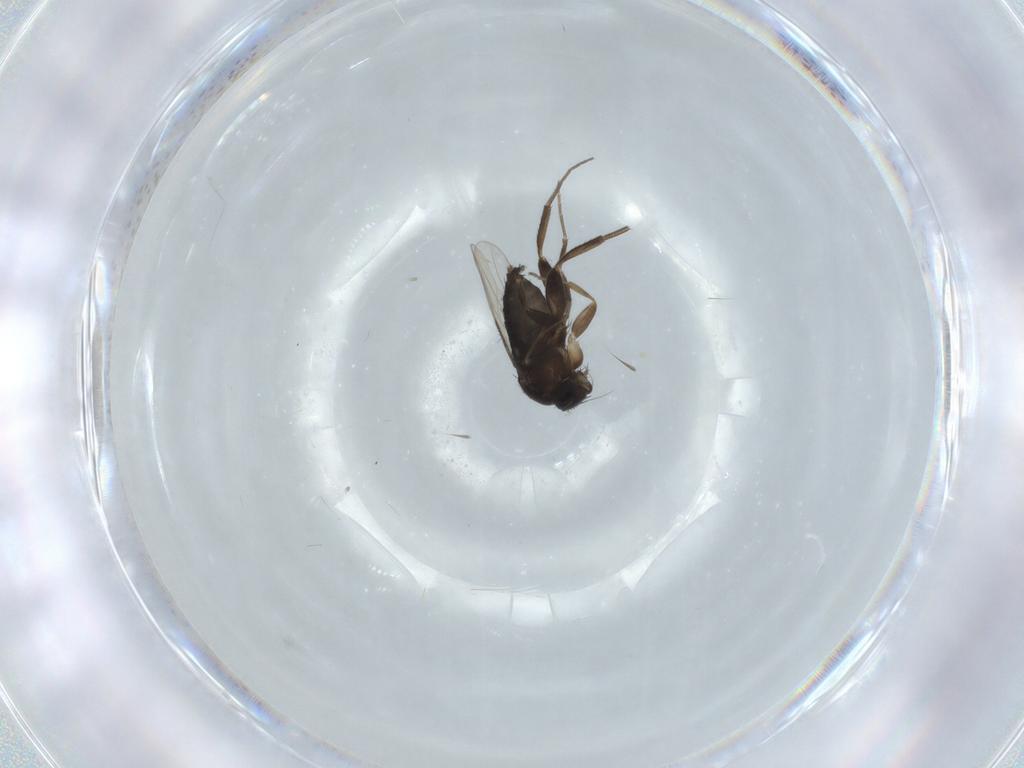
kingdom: Animalia
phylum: Arthropoda
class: Insecta
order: Diptera
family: Phoridae
